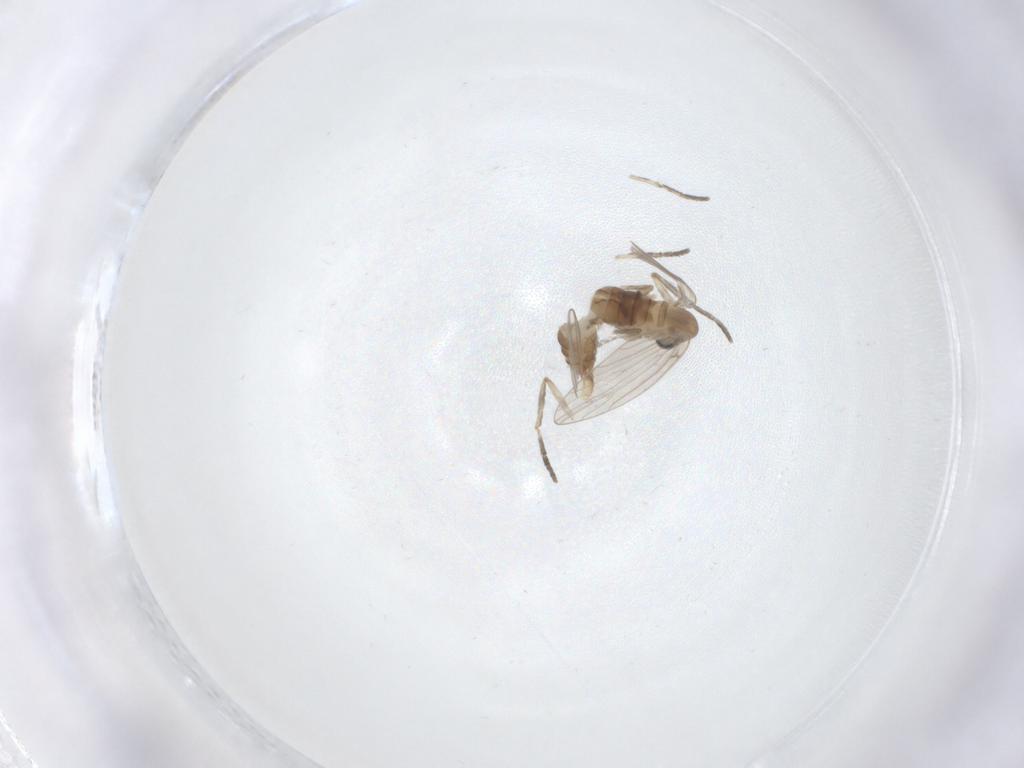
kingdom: Animalia
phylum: Arthropoda
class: Insecta
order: Diptera
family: Psychodidae
